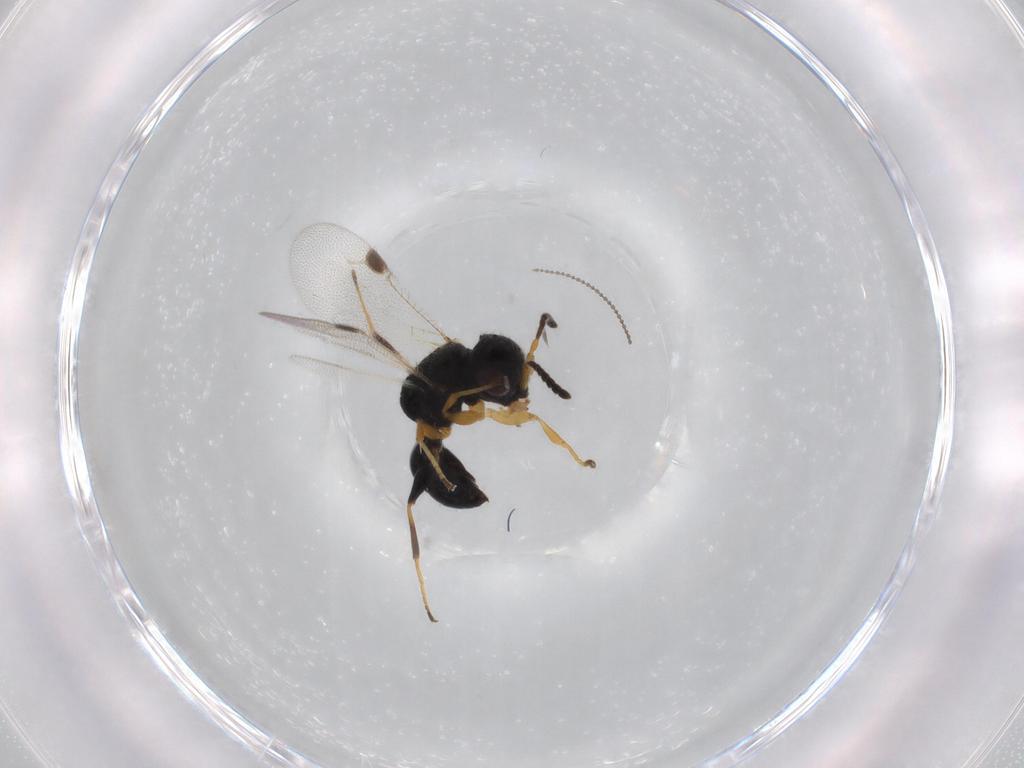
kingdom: Animalia
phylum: Arthropoda
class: Insecta
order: Hymenoptera
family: Dryinidae
